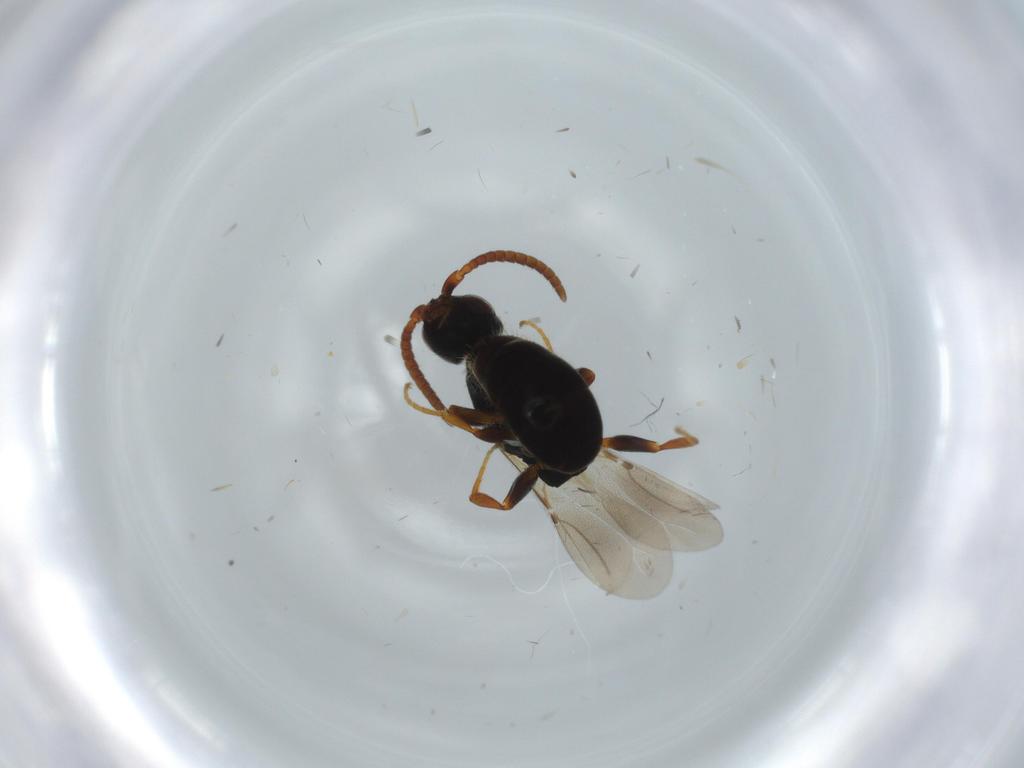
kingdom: Animalia
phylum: Arthropoda
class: Insecta
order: Hymenoptera
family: Bethylidae
